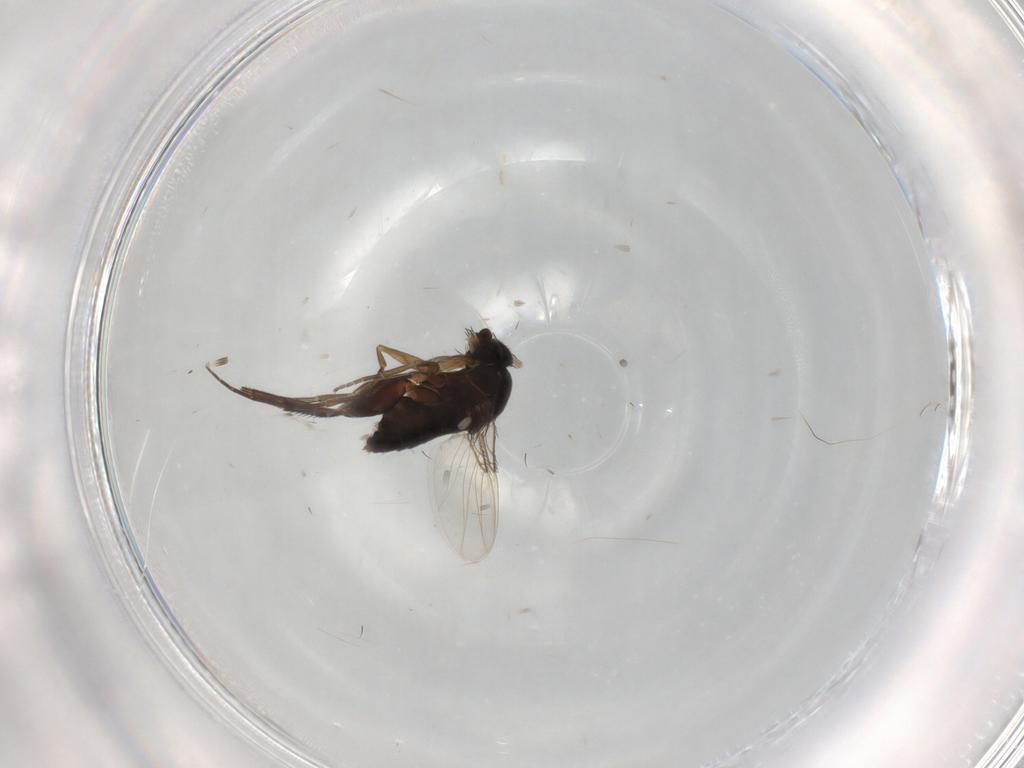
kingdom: Animalia
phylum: Arthropoda
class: Insecta
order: Diptera
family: Phoridae
